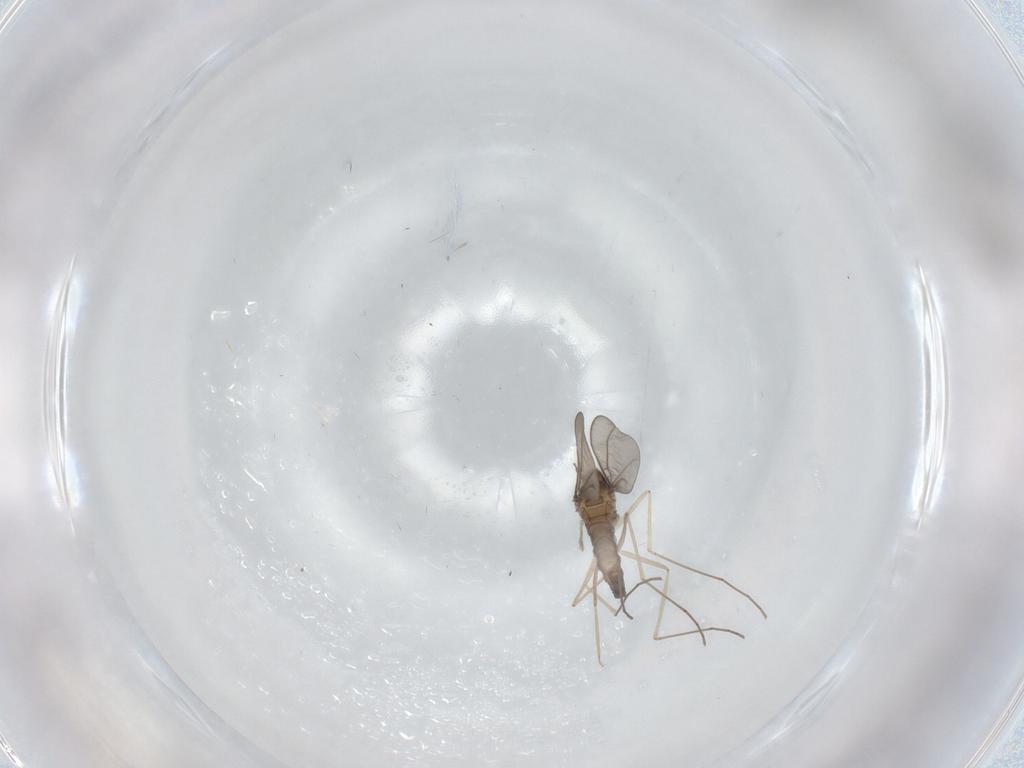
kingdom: Animalia
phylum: Arthropoda
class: Insecta
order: Diptera
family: Cecidomyiidae
